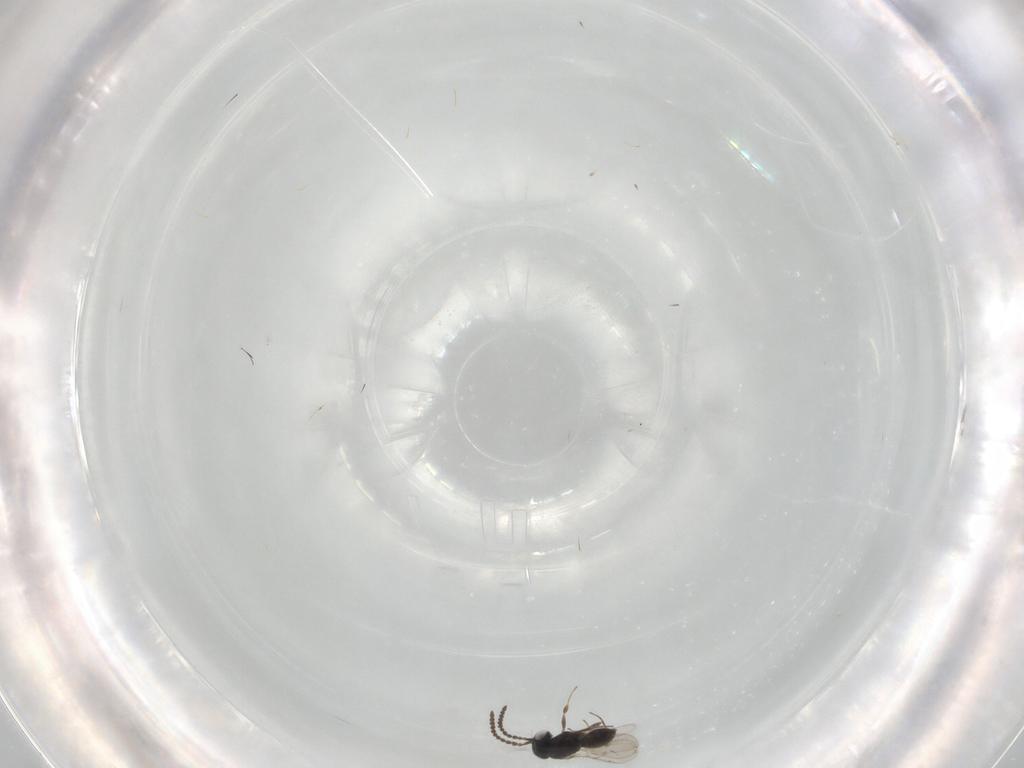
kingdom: Animalia
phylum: Arthropoda
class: Insecta
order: Hymenoptera
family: Scelionidae
